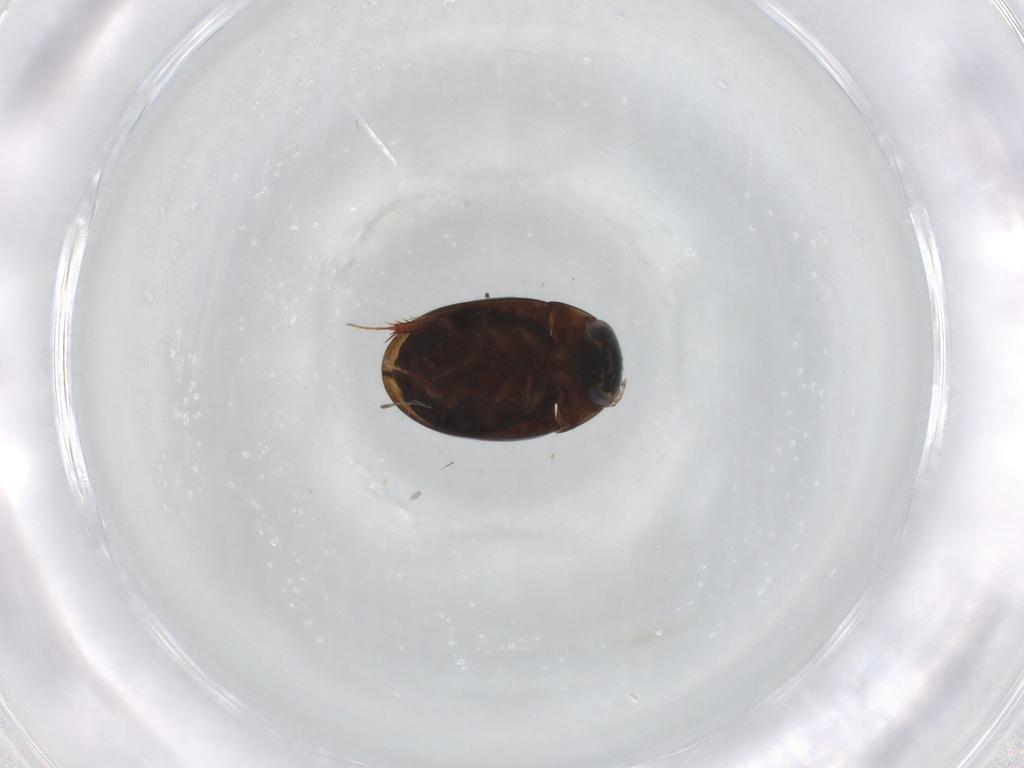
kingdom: Animalia
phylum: Arthropoda
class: Insecta
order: Coleoptera
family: Hydrophilidae
